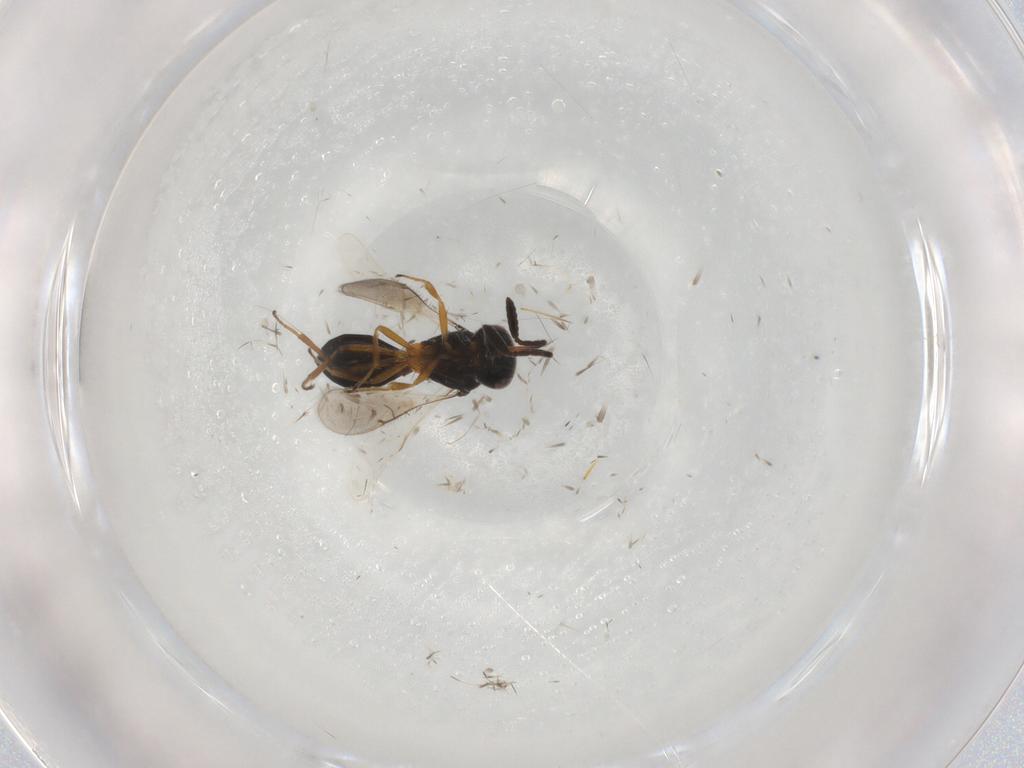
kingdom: Animalia
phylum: Arthropoda
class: Insecta
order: Hymenoptera
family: Scelionidae
